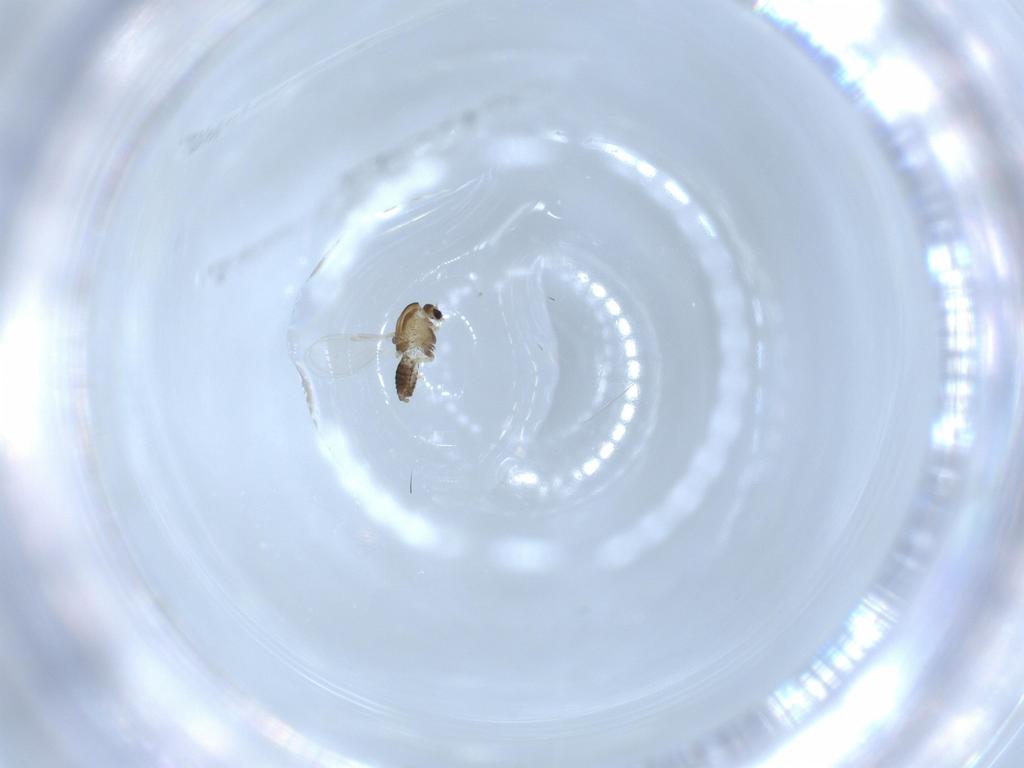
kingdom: Animalia
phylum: Arthropoda
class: Insecta
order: Diptera
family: Chironomidae
